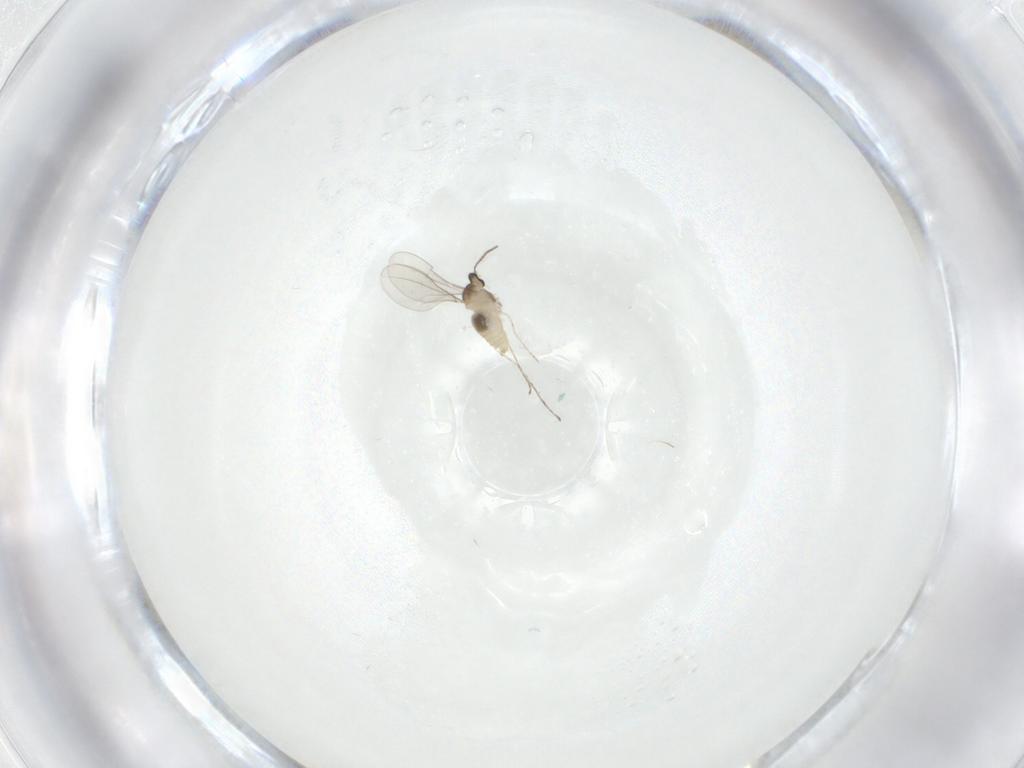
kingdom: Animalia
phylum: Arthropoda
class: Insecta
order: Diptera
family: Cecidomyiidae
